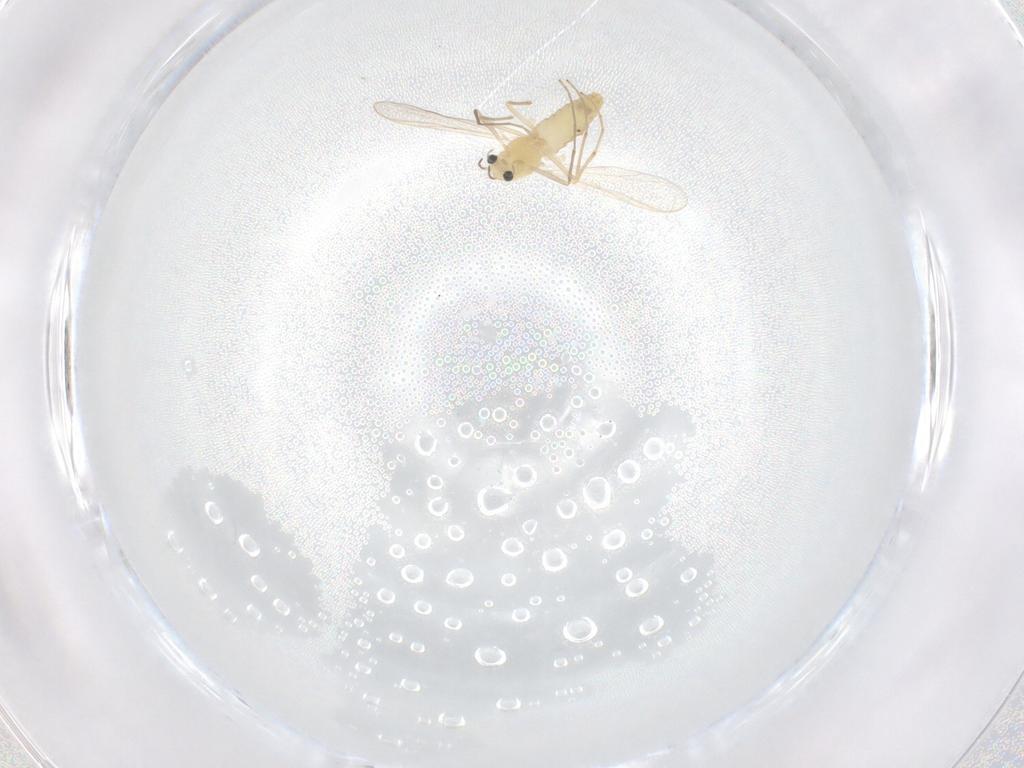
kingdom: Animalia
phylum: Arthropoda
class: Insecta
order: Diptera
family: Chironomidae
